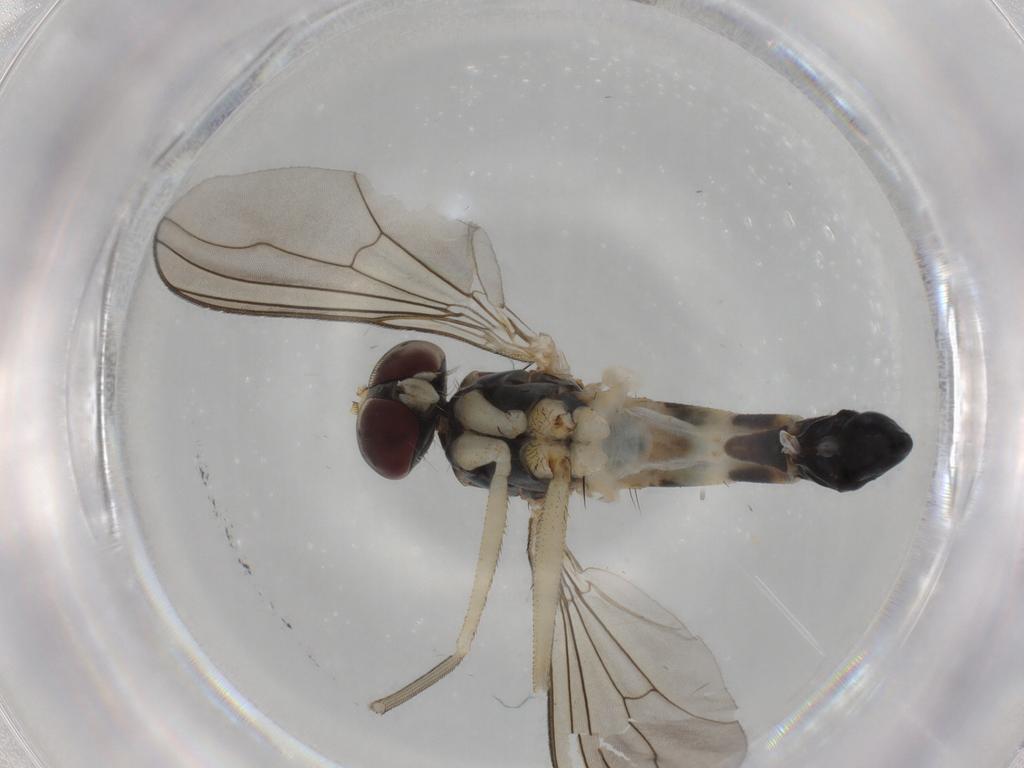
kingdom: Animalia
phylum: Arthropoda
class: Insecta
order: Diptera
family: Dolichopodidae
